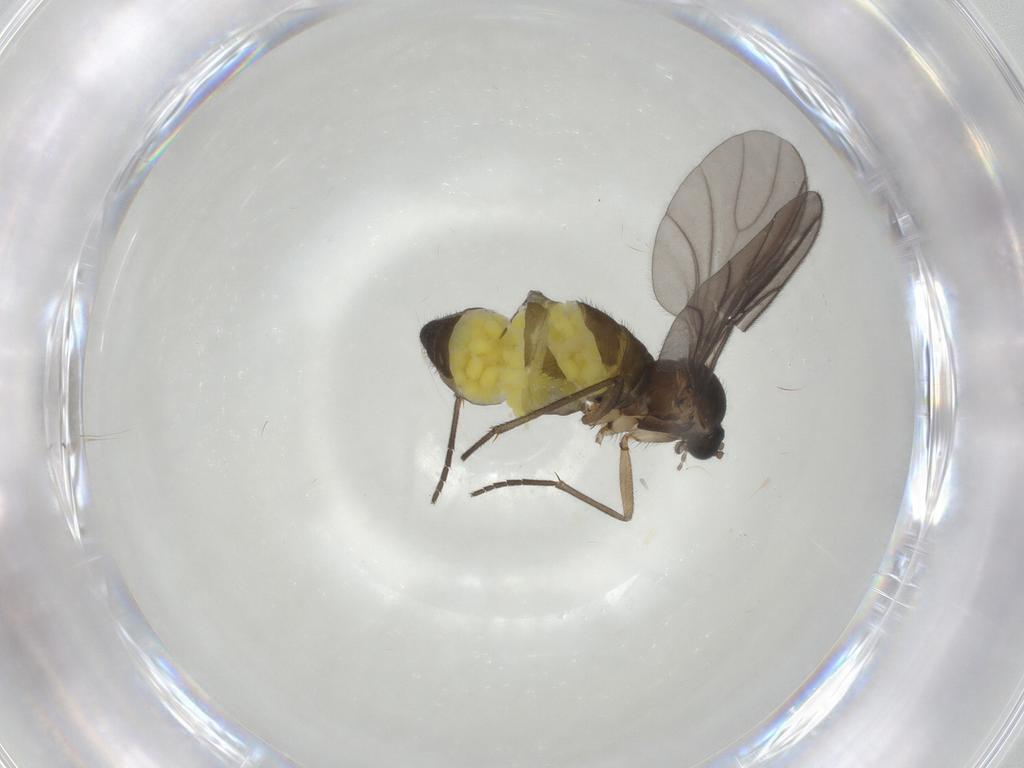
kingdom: Animalia
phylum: Arthropoda
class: Insecta
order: Diptera
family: Sciaridae
